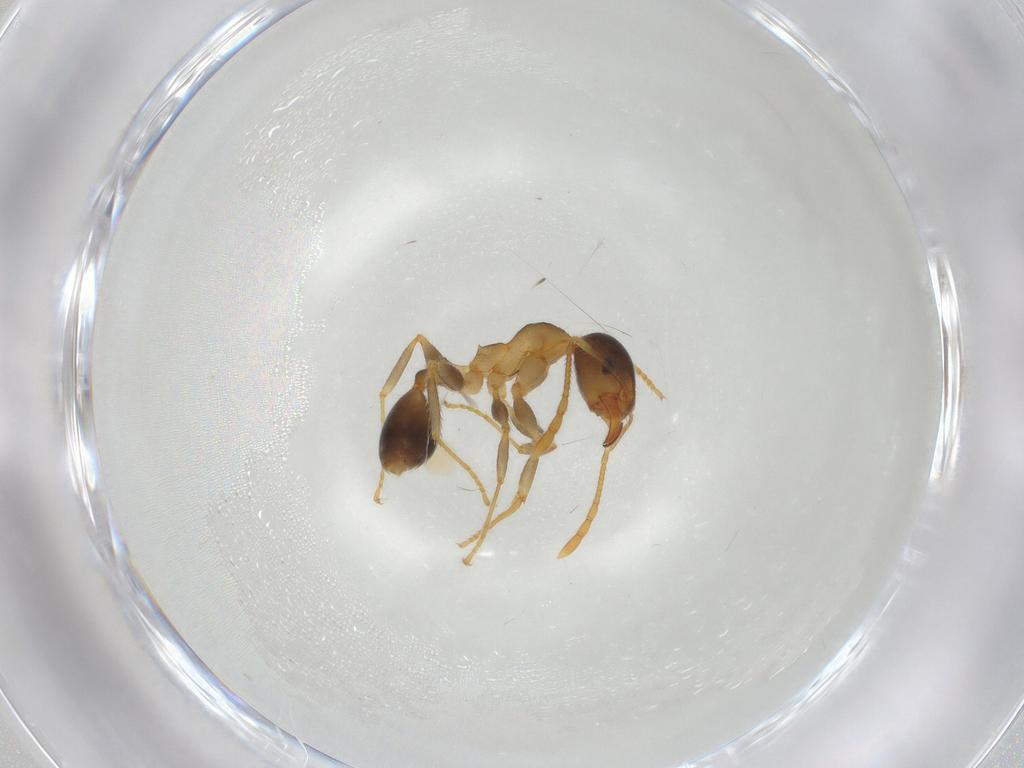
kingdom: Animalia
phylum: Arthropoda
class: Insecta
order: Hymenoptera
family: Formicidae
